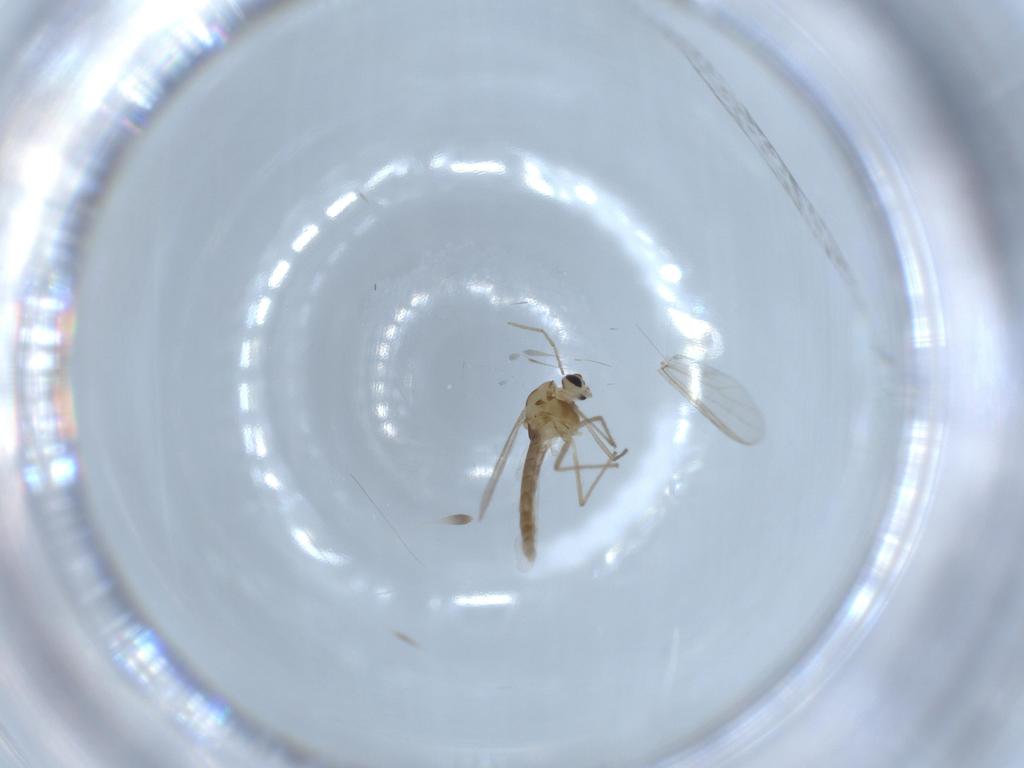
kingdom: Animalia
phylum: Arthropoda
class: Insecta
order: Diptera
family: Chironomidae
